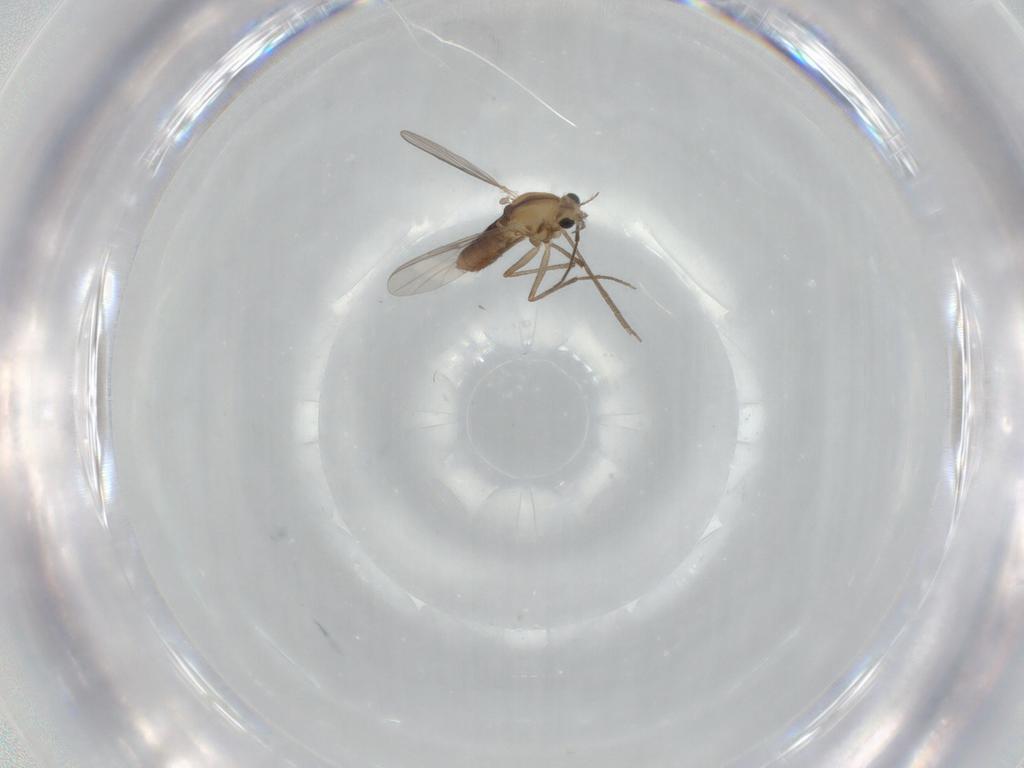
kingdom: Animalia
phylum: Arthropoda
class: Insecta
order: Diptera
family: Chironomidae
